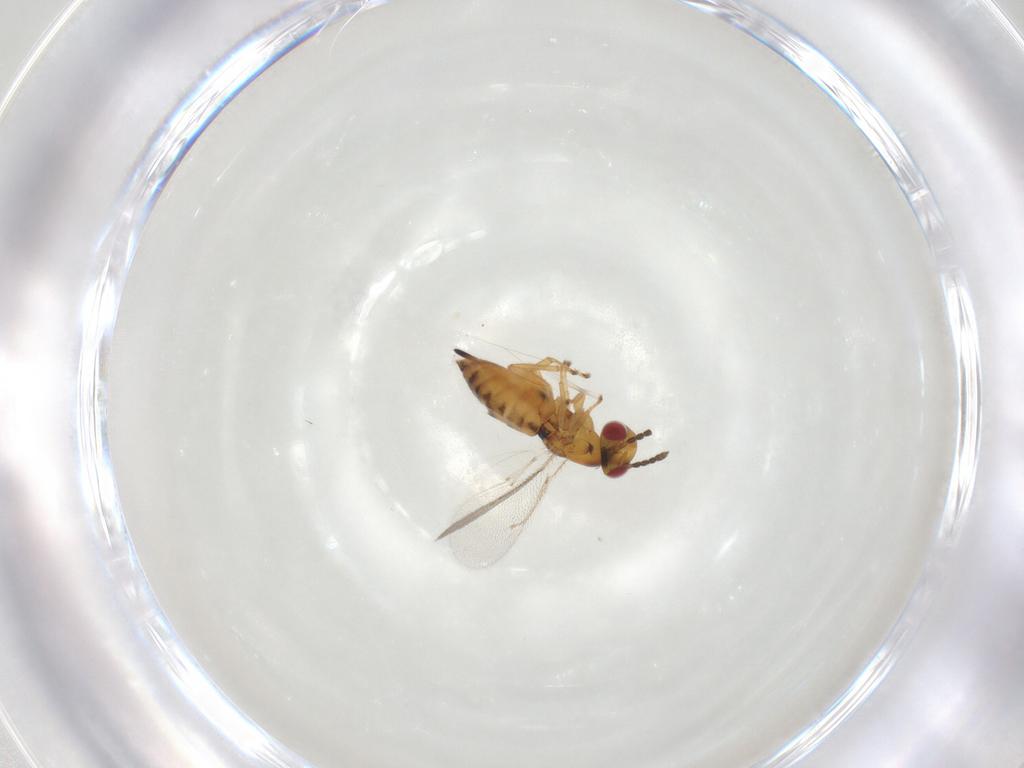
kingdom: Animalia
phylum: Arthropoda
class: Insecta
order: Hymenoptera
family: Eulophidae
